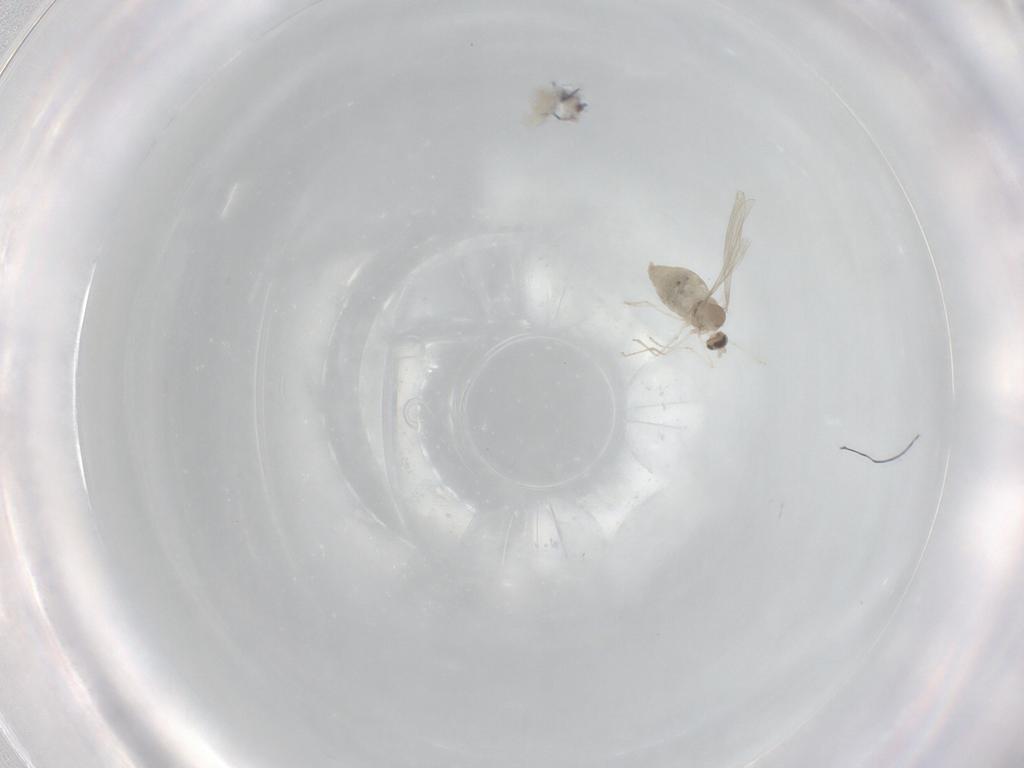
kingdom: Animalia
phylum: Arthropoda
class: Insecta
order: Diptera
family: Cecidomyiidae
